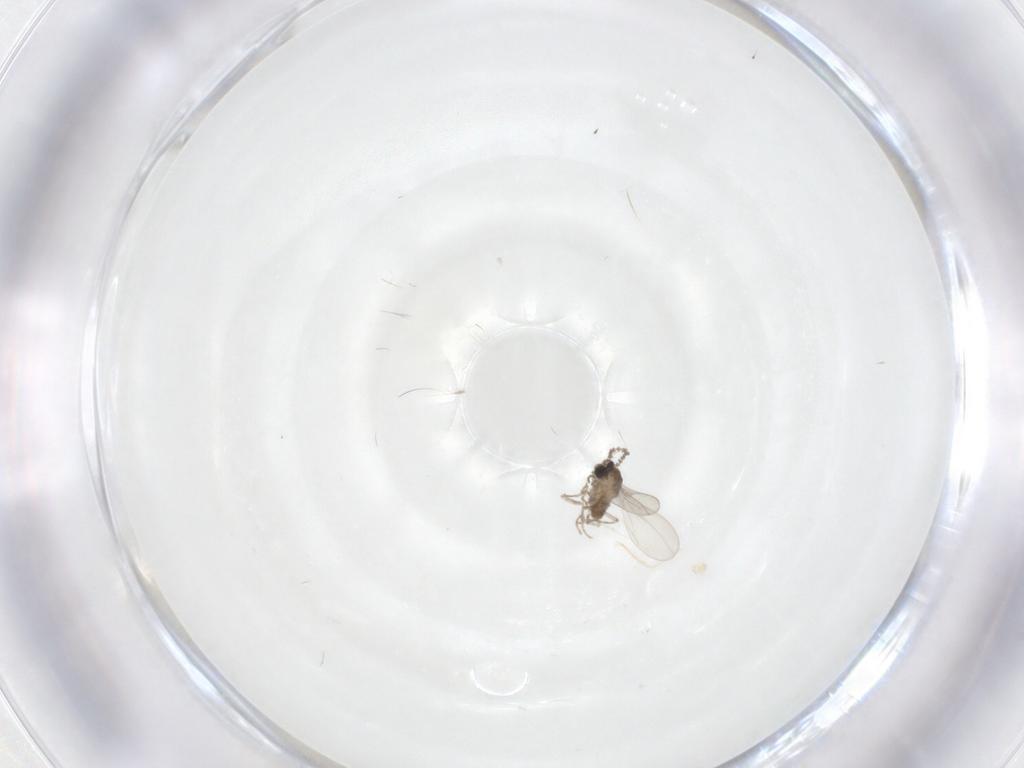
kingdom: Animalia
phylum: Arthropoda
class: Insecta
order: Diptera
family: Cecidomyiidae
